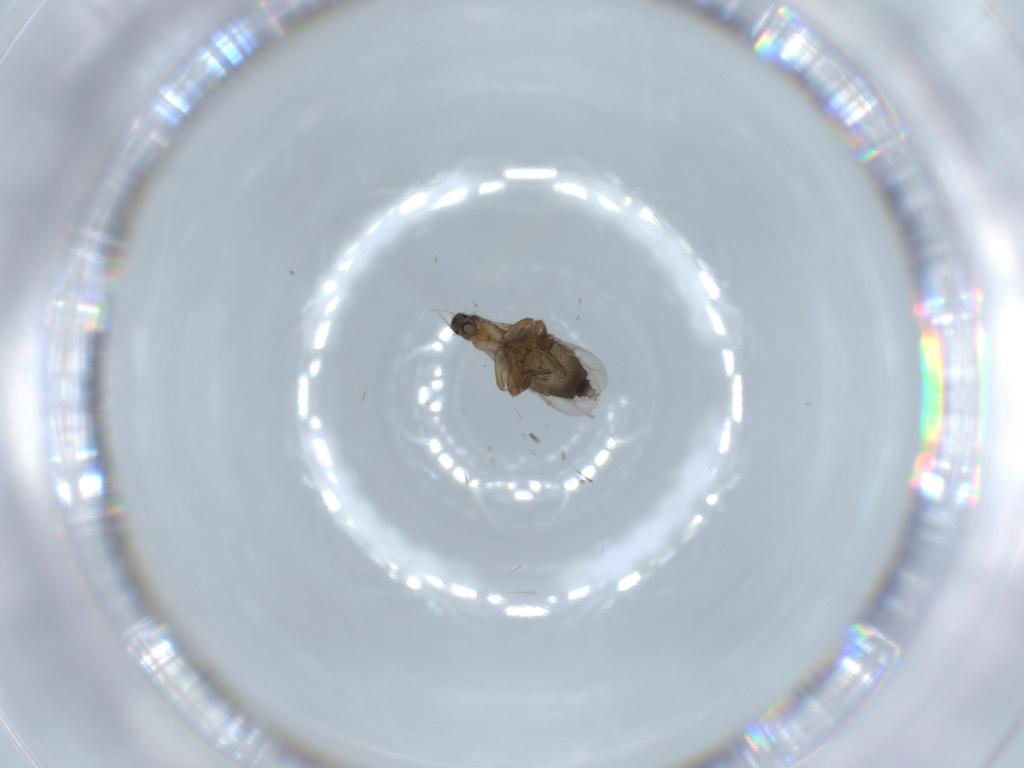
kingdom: Animalia
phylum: Arthropoda
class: Insecta
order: Diptera
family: Phoridae
